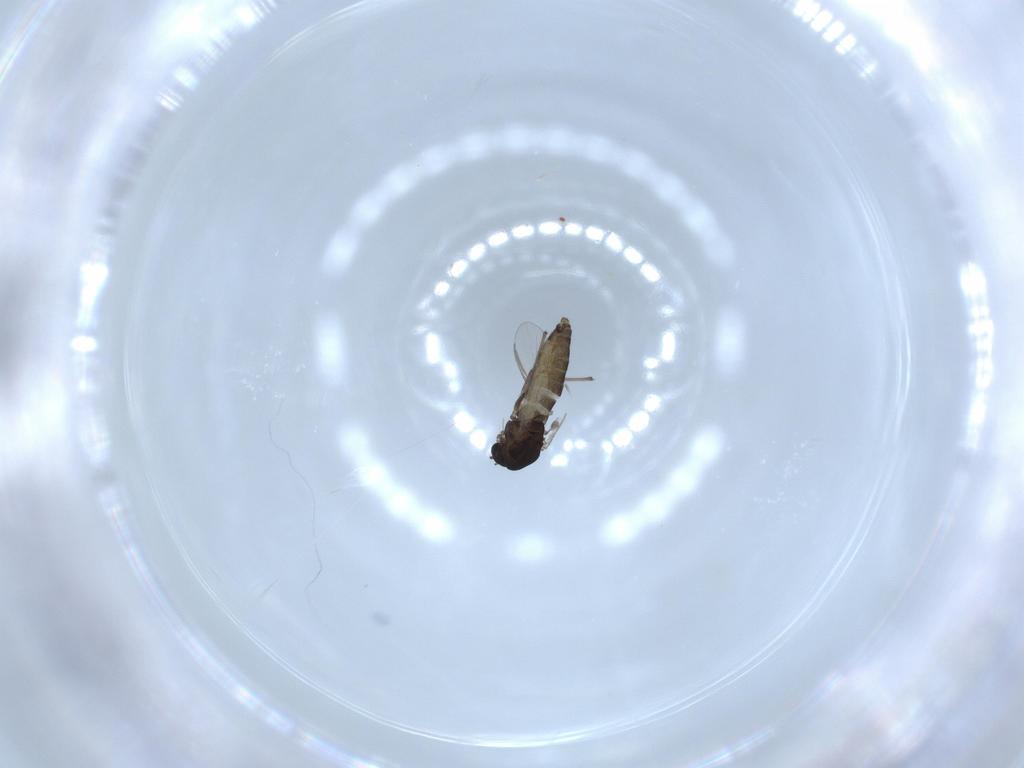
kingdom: Animalia
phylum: Arthropoda
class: Insecta
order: Diptera
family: Chironomidae
